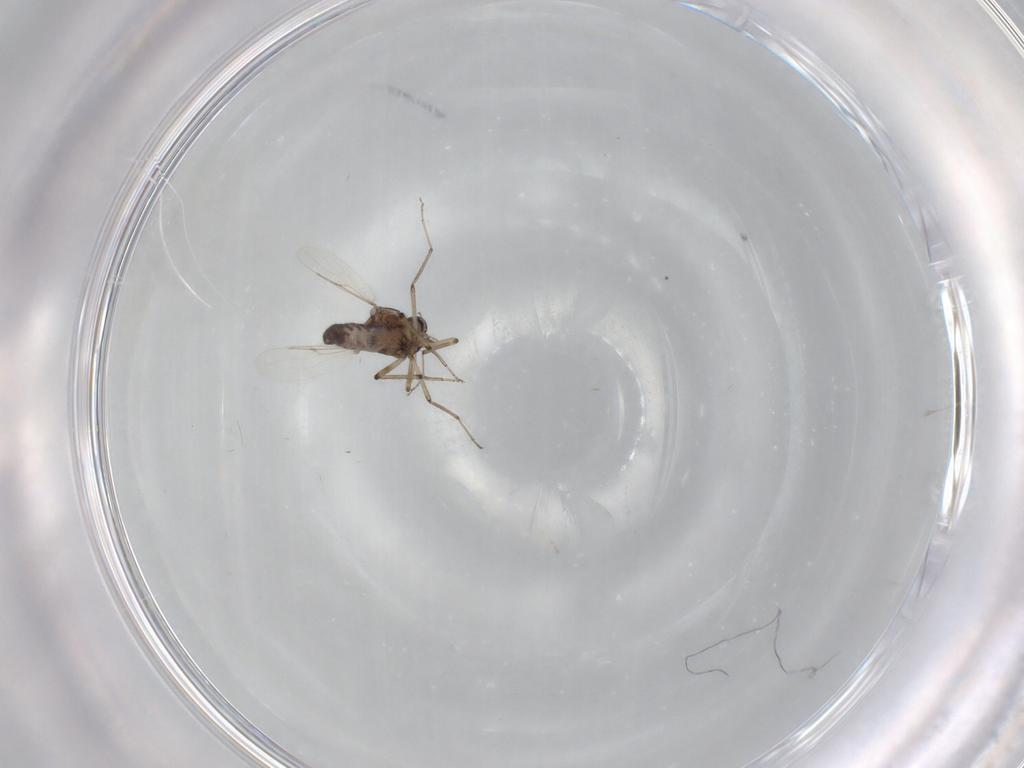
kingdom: Animalia
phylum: Arthropoda
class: Insecta
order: Diptera
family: Ceratopogonidae
